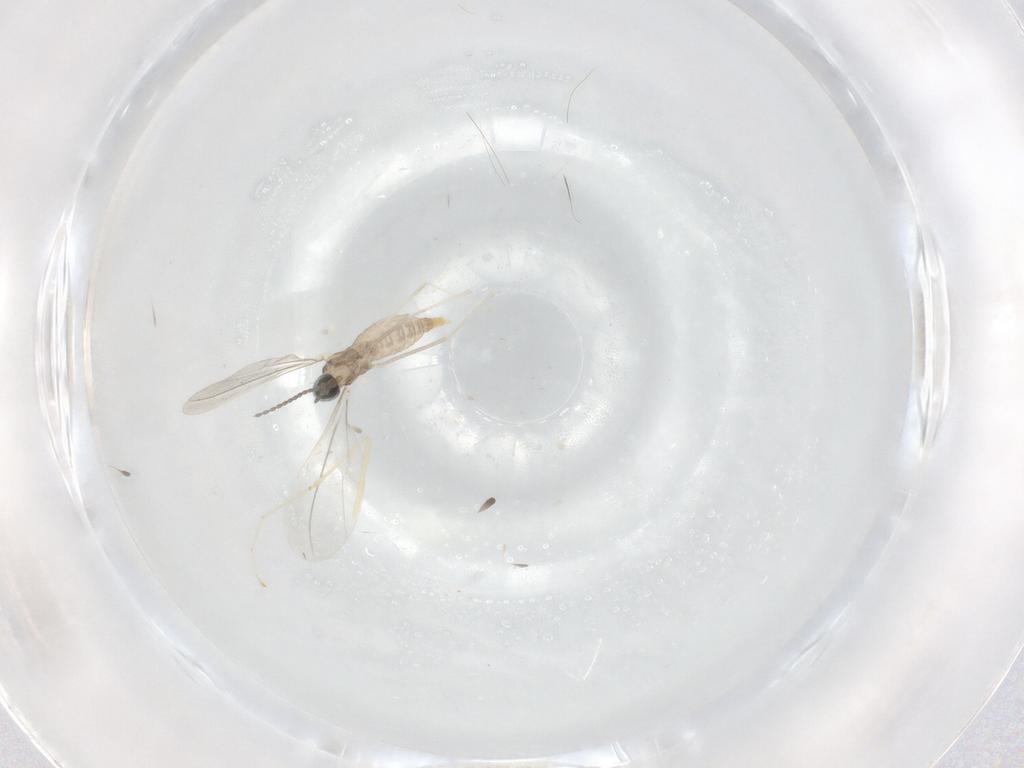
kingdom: Animalia
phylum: Arthropoda
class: Insecta
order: Diptera
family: Cecidomyiidae
